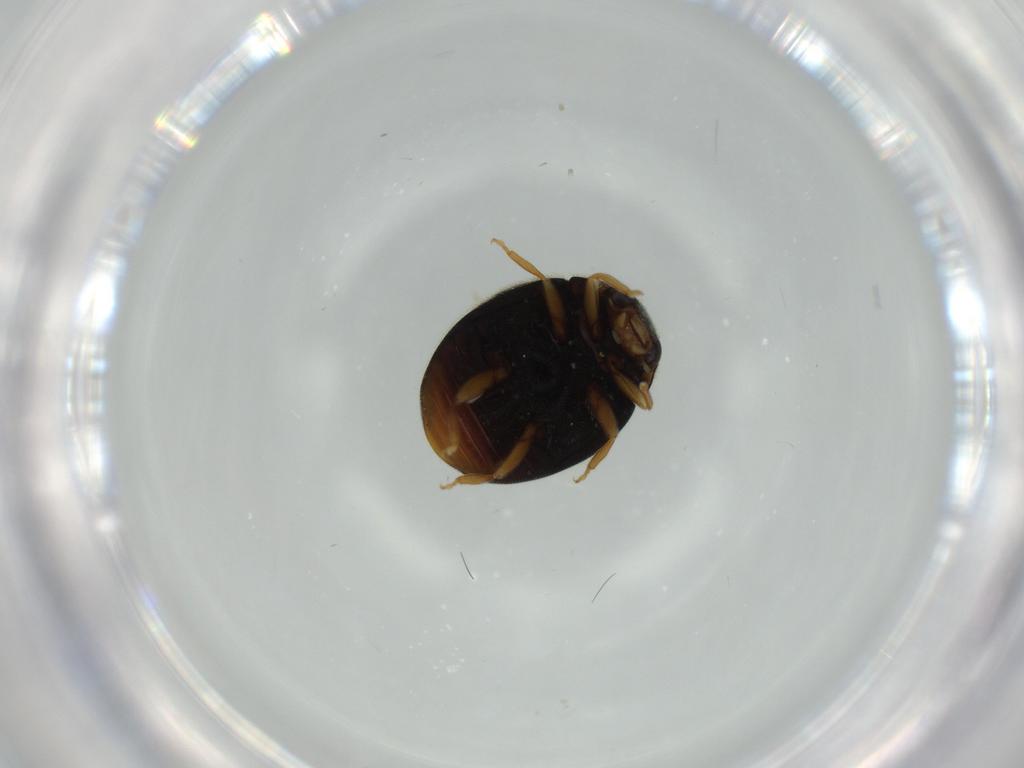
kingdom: Animalia
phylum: Arthropoda
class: Insecta
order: Coleoptera
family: Coccinellidae
